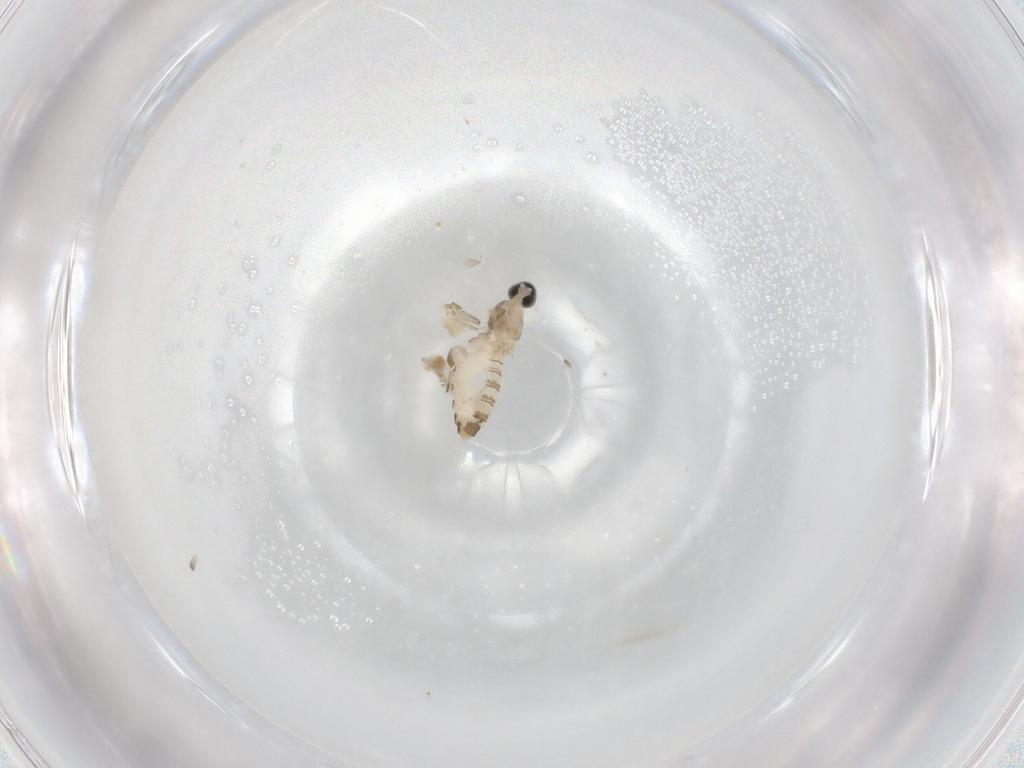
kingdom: Animalia
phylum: Arthropoda
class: Insecta
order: Diptera
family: Cecidomyiidae
